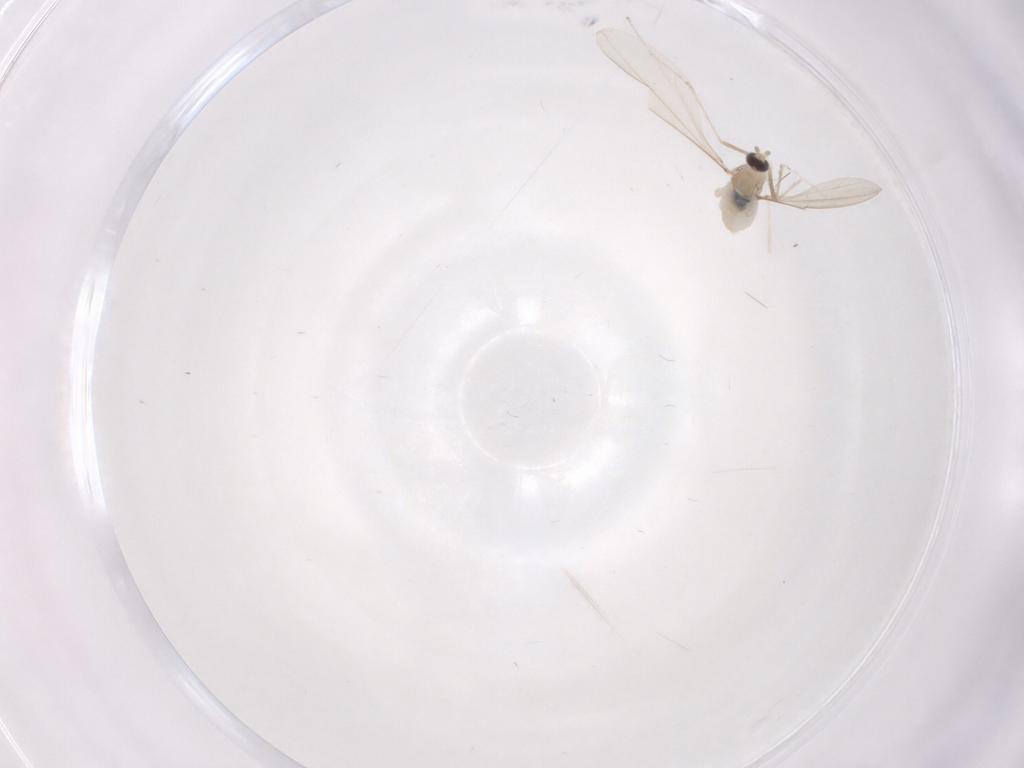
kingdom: Animalia
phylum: Arthropoda
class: Insecta
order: Diptera
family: Cecidomyiidae
